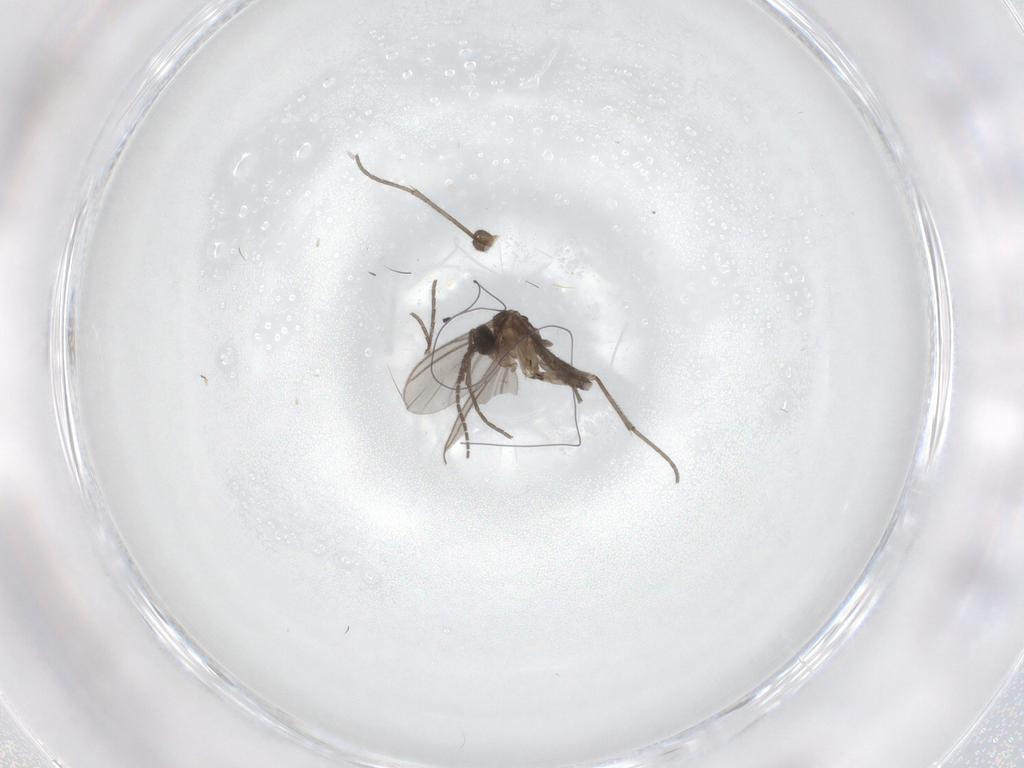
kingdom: Animalia
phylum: Arthropoda
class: Insecta
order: Diptera
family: Sciaridae
